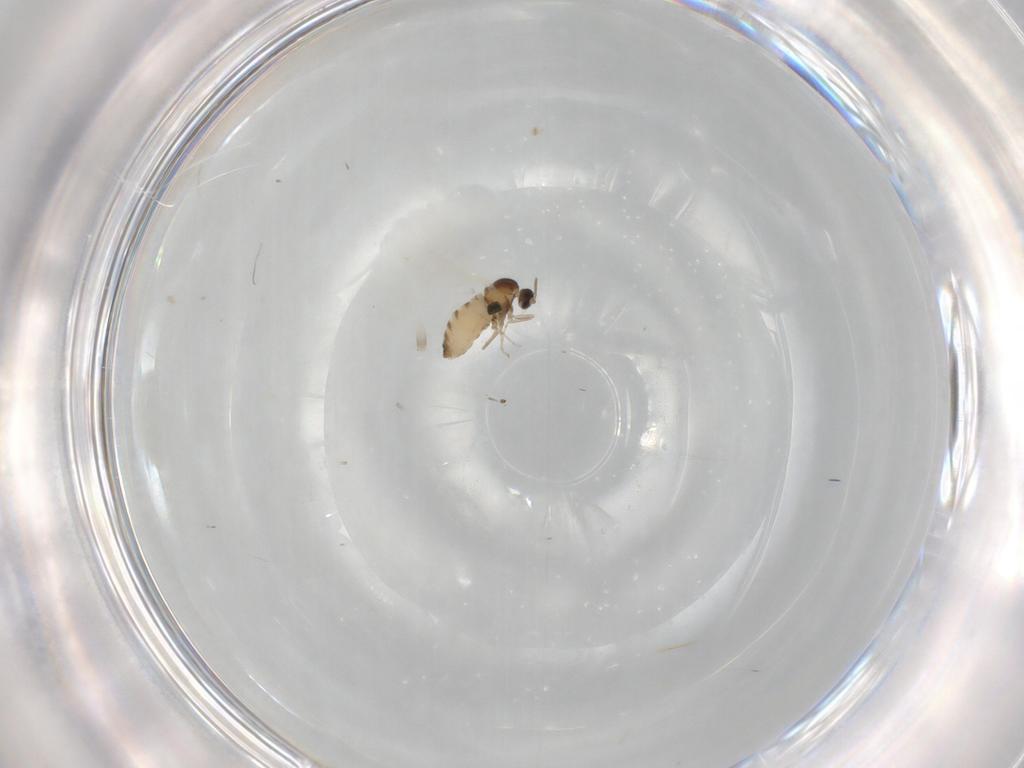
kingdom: Animalia
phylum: Arthropoda
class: Insecta
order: Diptera
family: Cecidomyiidae
